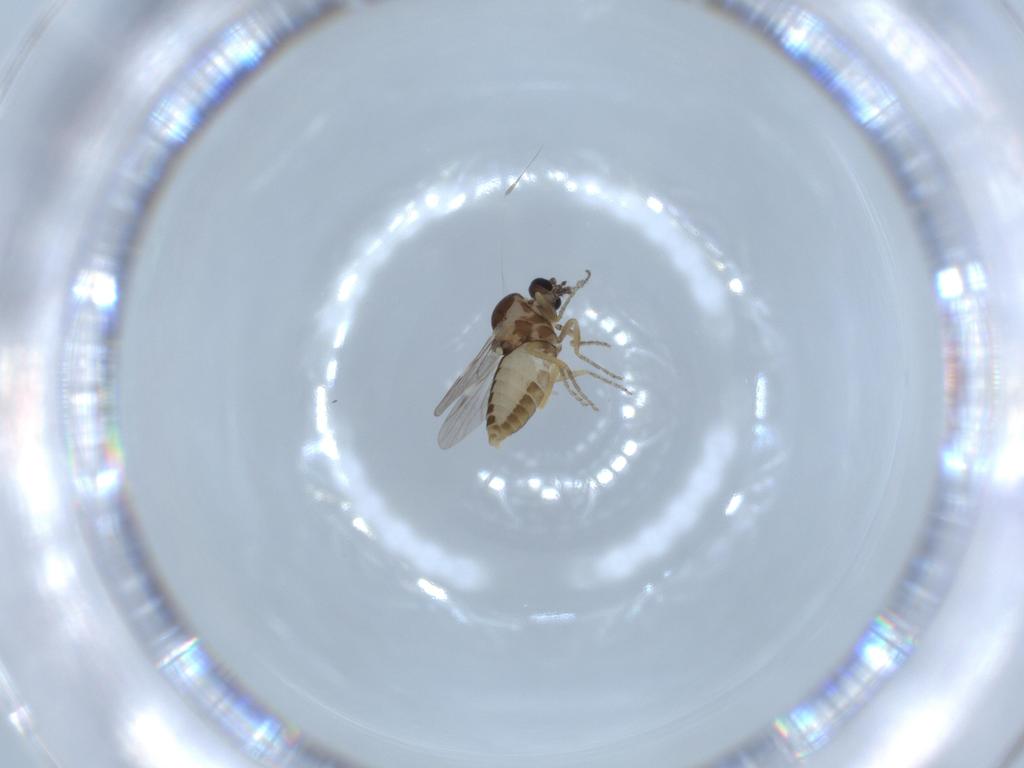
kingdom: Animalia
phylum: Arthropoda
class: Insecta
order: Diptera
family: Ceratopogonidae
